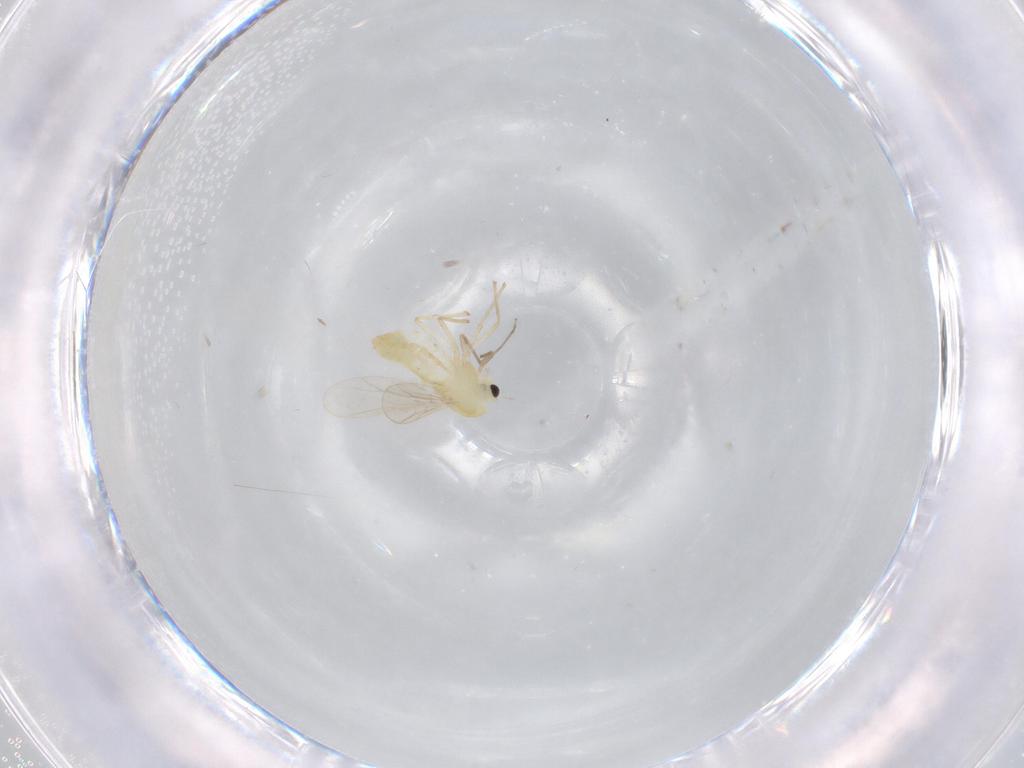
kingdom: Animalia
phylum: Arthropoda
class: Insecta
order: Diptera
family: Chironomidae
